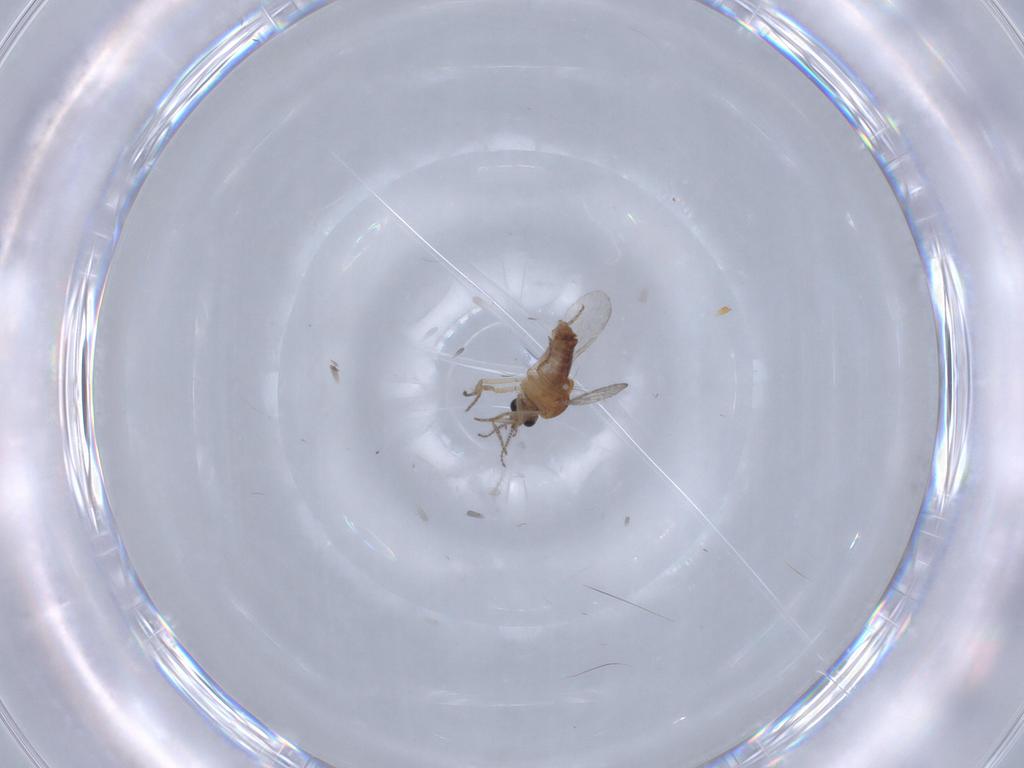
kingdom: Animalia
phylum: Arthropoda
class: Insecta
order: Diptera
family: Ceratopogonidae
